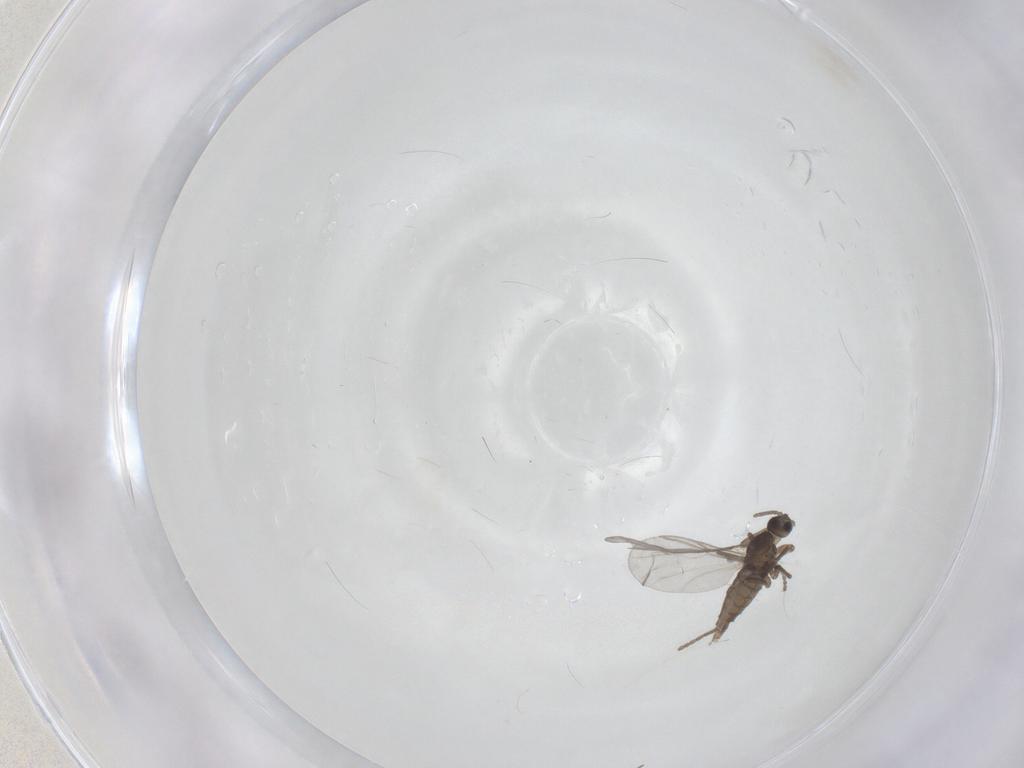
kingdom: Animalia
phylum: Arthropoda
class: Insecta
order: Diptera
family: Cecidomyiidae
